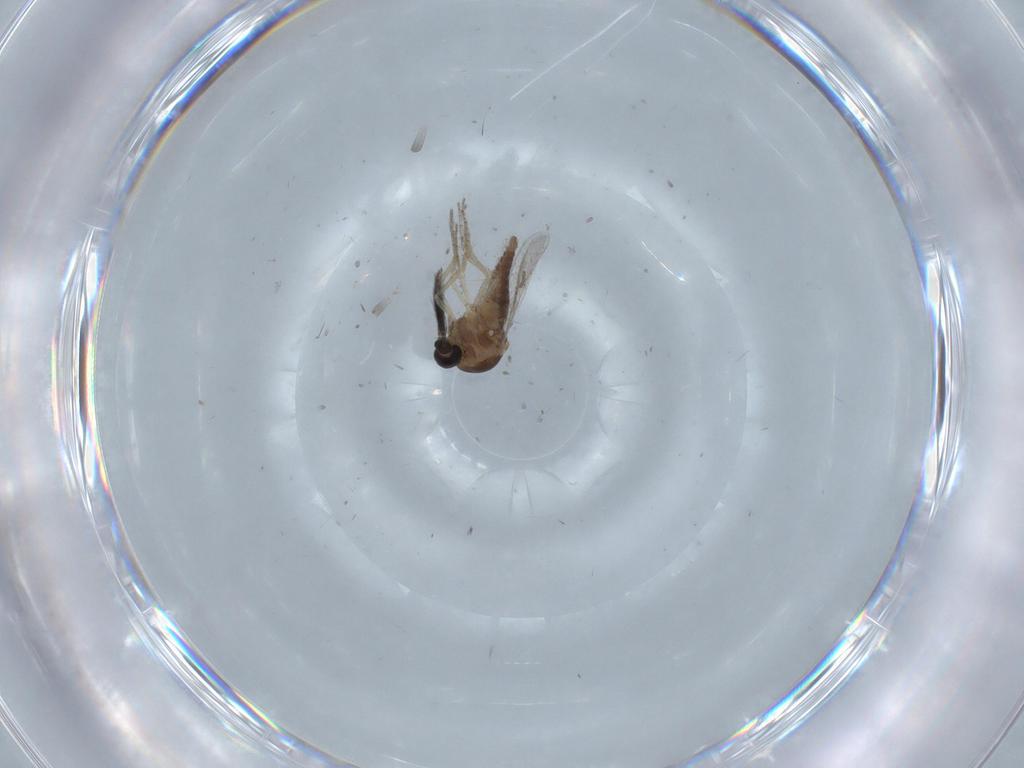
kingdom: Animalia
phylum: Arthropoda
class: Insecta
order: Diptera
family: Ceratopogonidae
